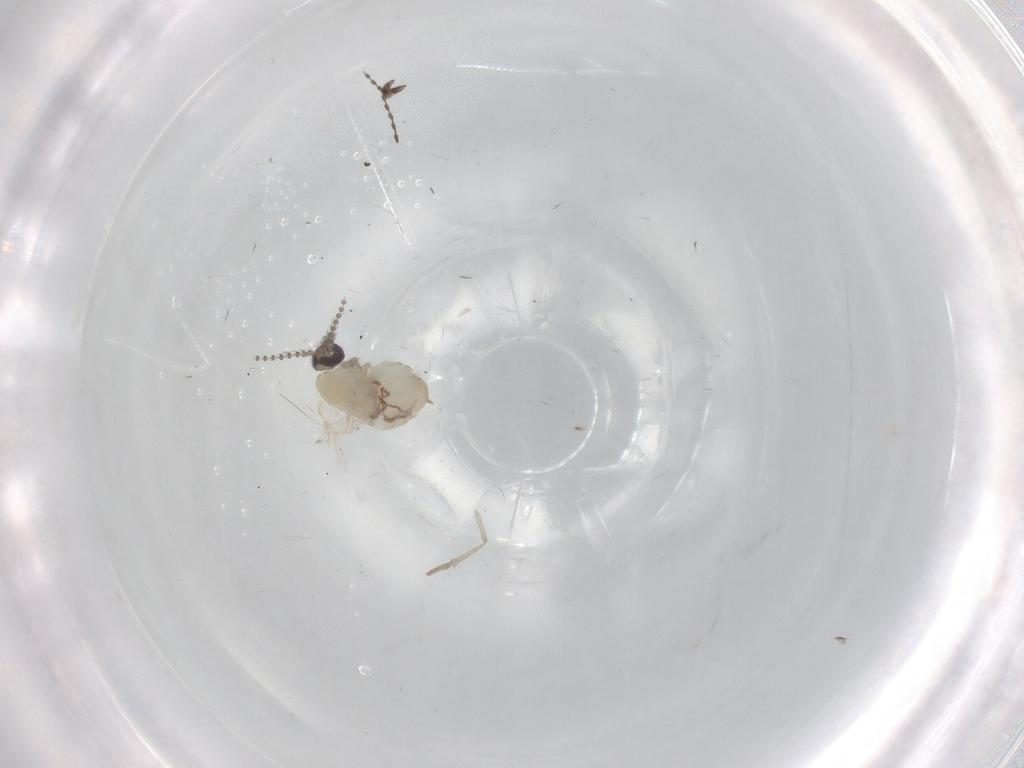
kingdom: Animalia
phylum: Arthropoda
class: Insecta
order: Diptera
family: Psychodidae
